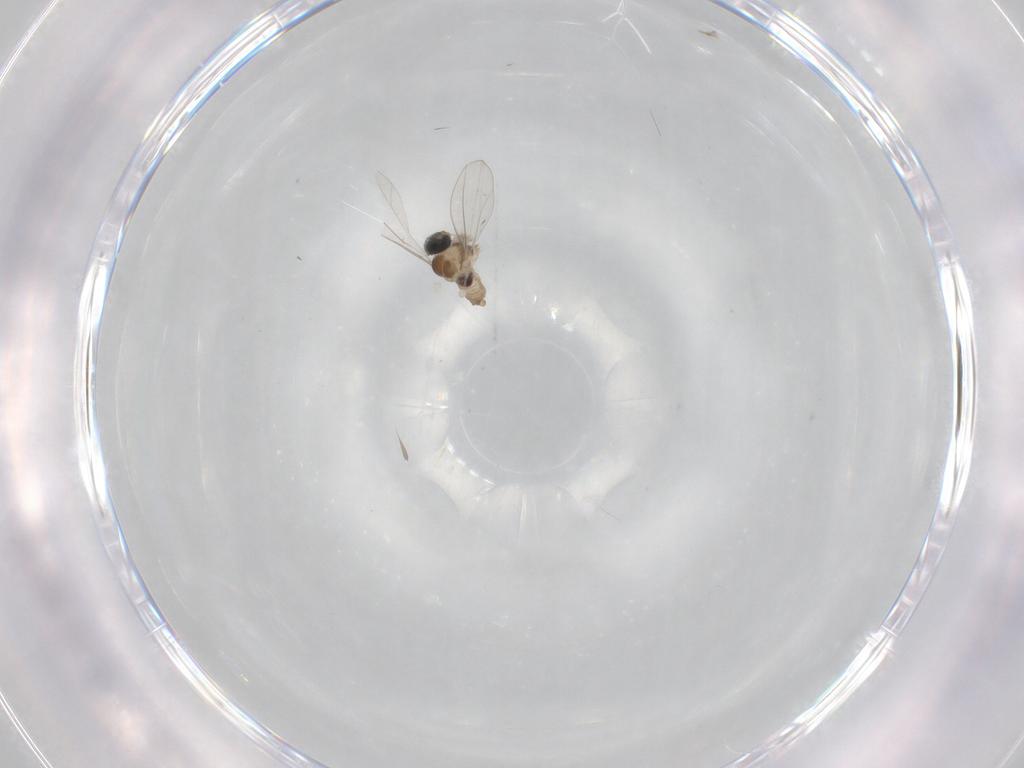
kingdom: Animalia
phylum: Arthropoda
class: Insecta
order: Diptera
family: Cecidomyiidae
